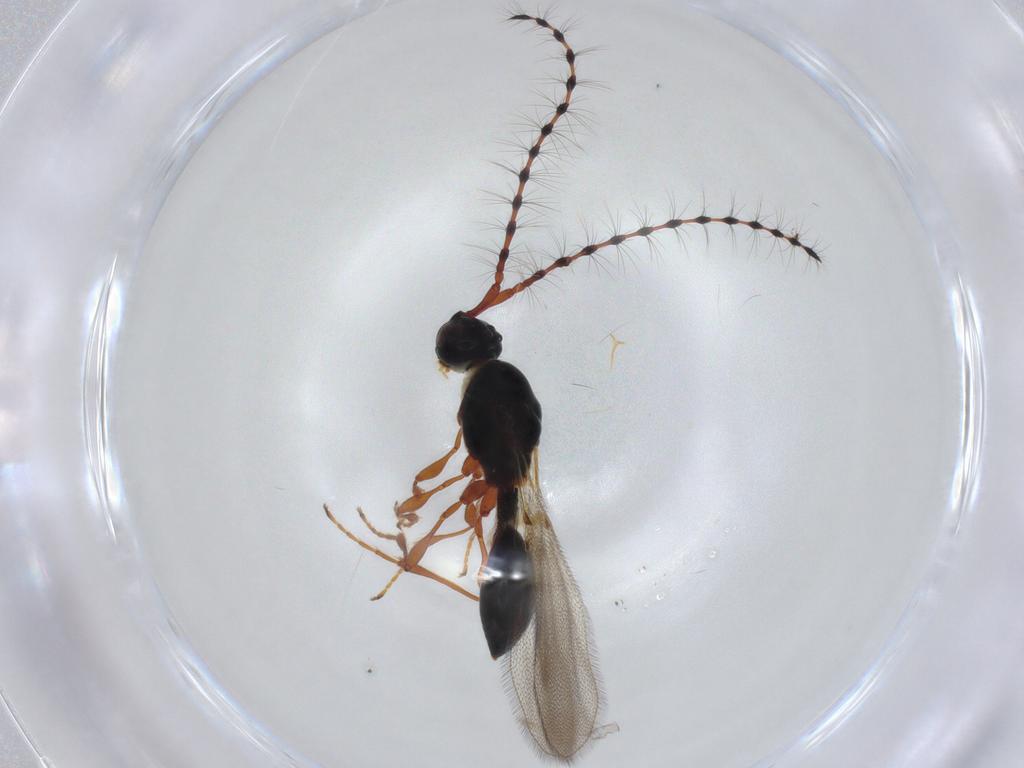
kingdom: Animalia
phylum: Arthropoda
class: Insecta
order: Hymenoptera
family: Diapriidae
